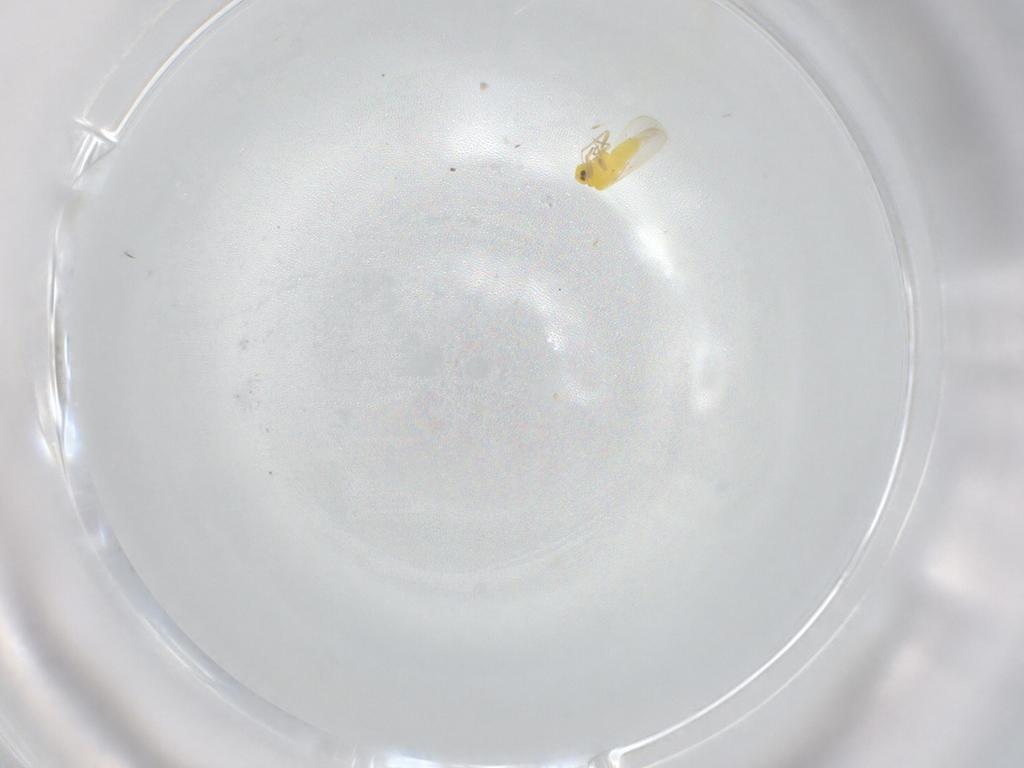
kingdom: Animalia
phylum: Arthropoda
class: Insecta
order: Hemiptera
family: Aleyrodidae
